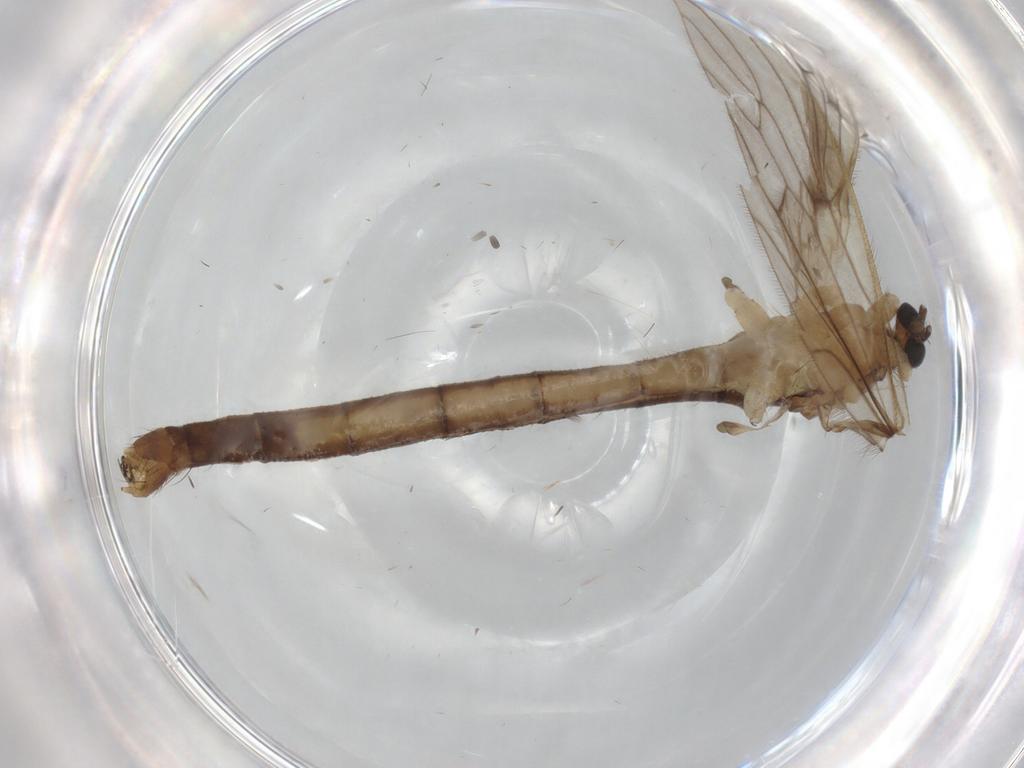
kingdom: Animalia
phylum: Arthropoda
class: Insecta
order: Diptera
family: Limoniidae
